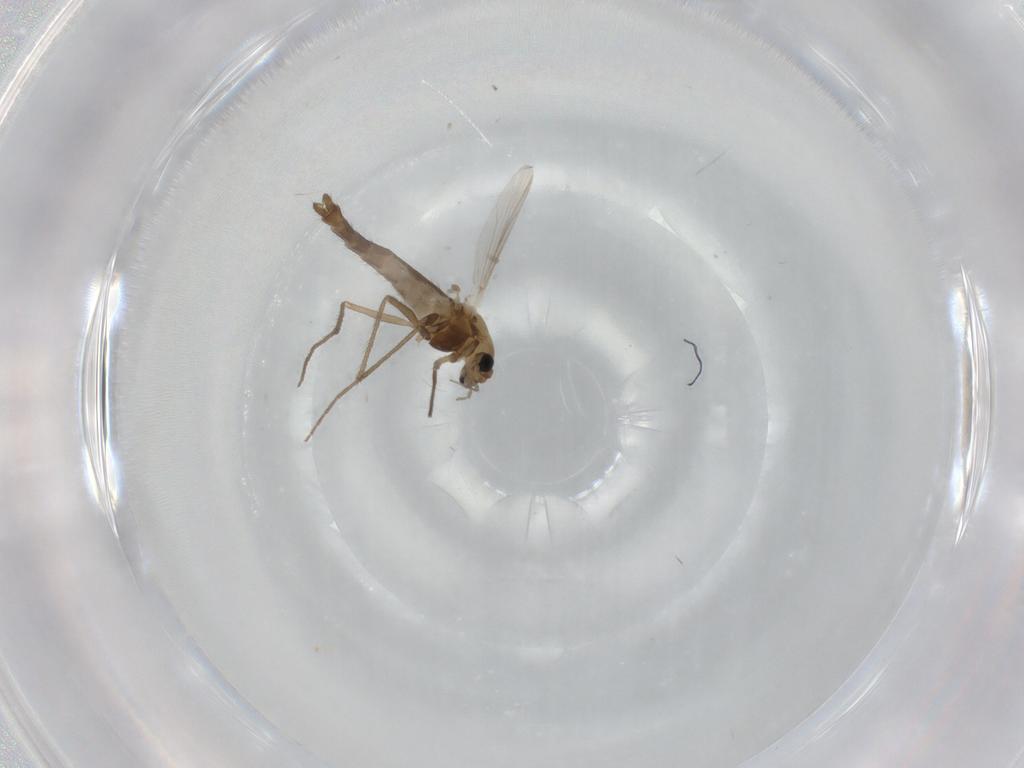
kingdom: Animalia
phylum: Arthropoda
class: Insecta
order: Diptera
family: Chironomidae
